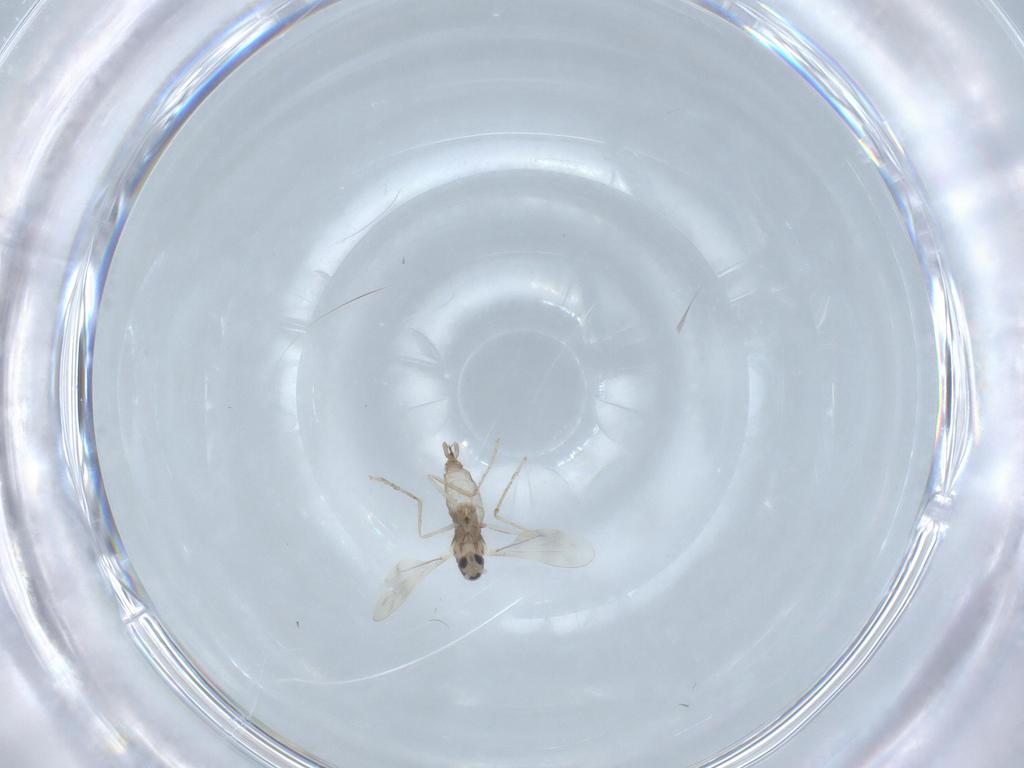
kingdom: Animalia
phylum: Arthropoda
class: Insecta
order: Diptera
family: Cecidomyiidae
